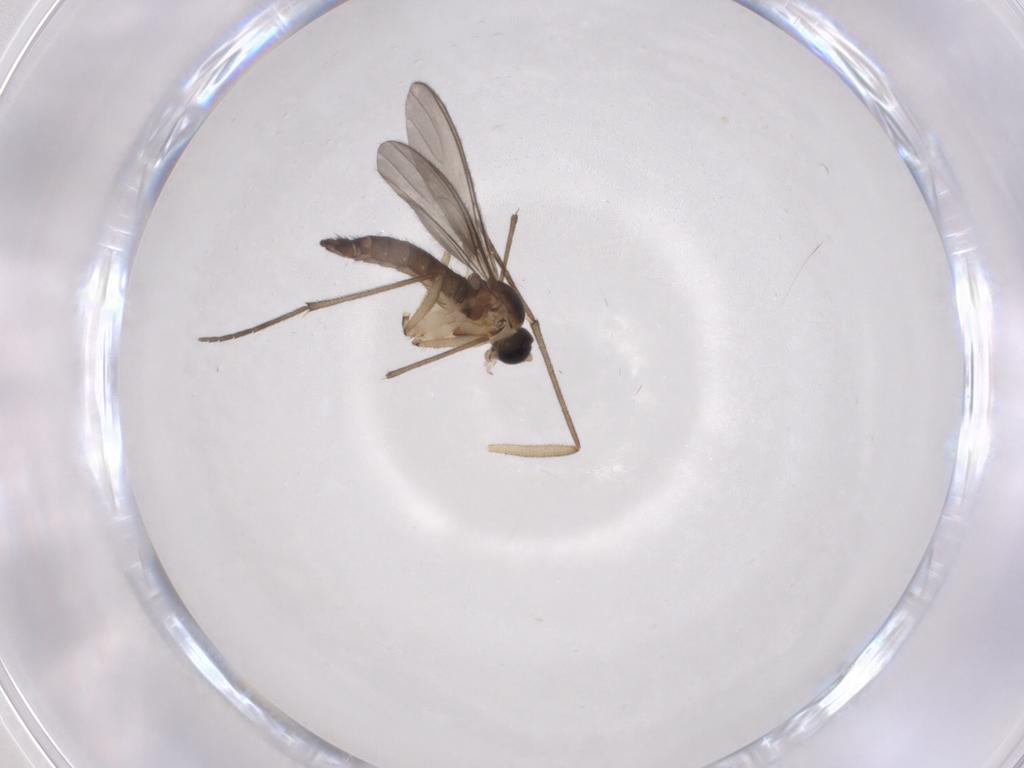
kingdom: Animalia
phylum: Arthropoda
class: Insecta
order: Diptera
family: Sciaridae
